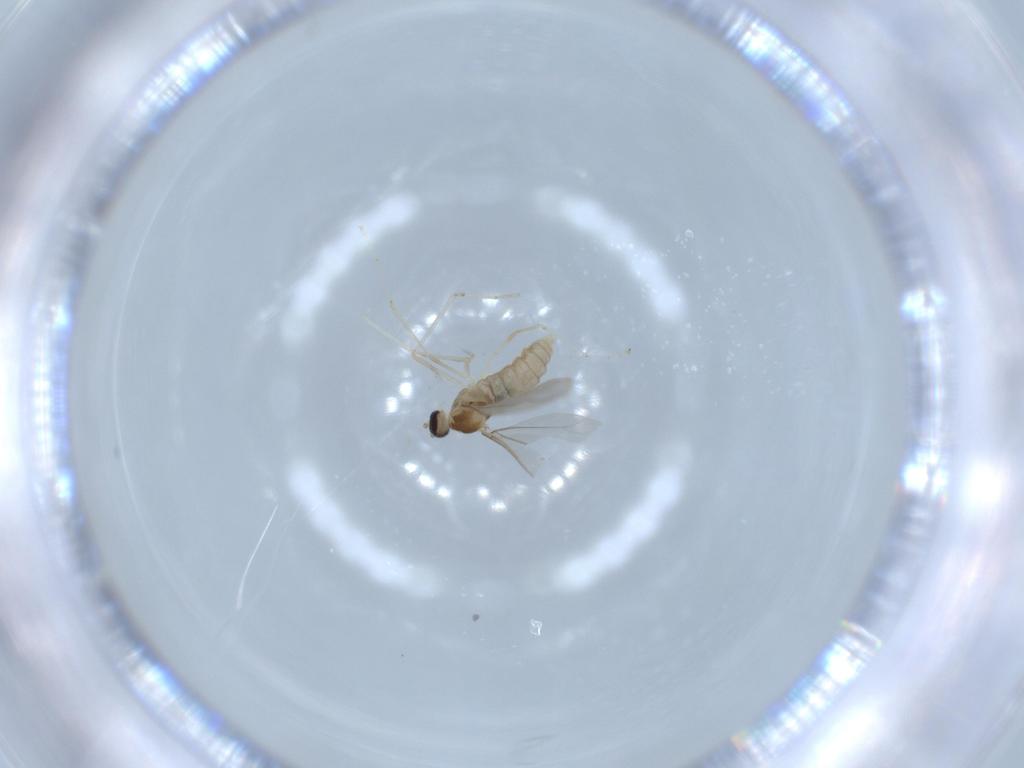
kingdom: Animalia
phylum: Arthropoda
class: Insecta
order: Diptera
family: Cecidomyiidae
